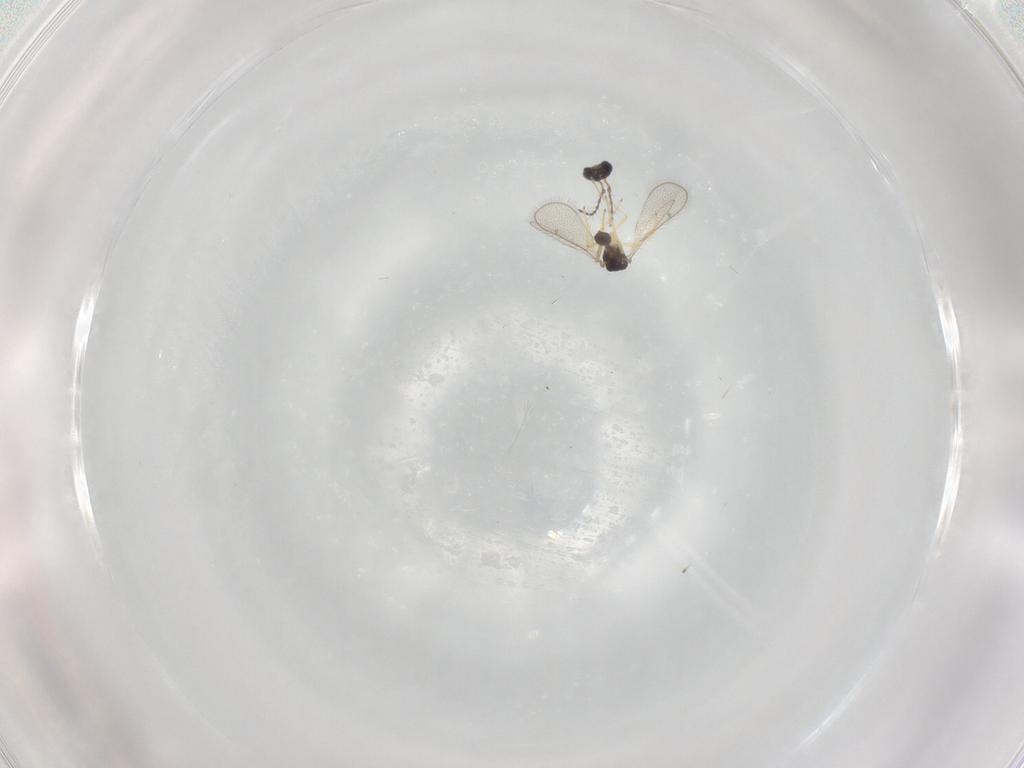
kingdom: Animalia
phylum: Arthropoda
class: Insecta
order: Hymenoptera
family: Diparidae
